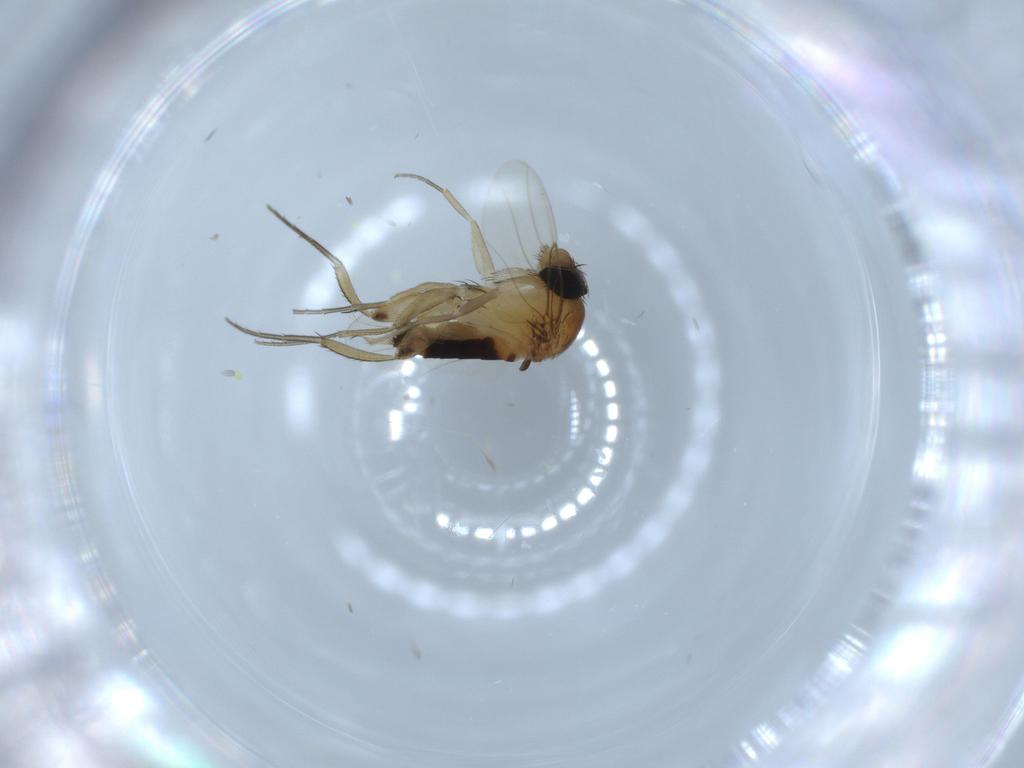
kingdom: Animalia
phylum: Arthropoda
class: Insecta
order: Diptera
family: Phoridae
